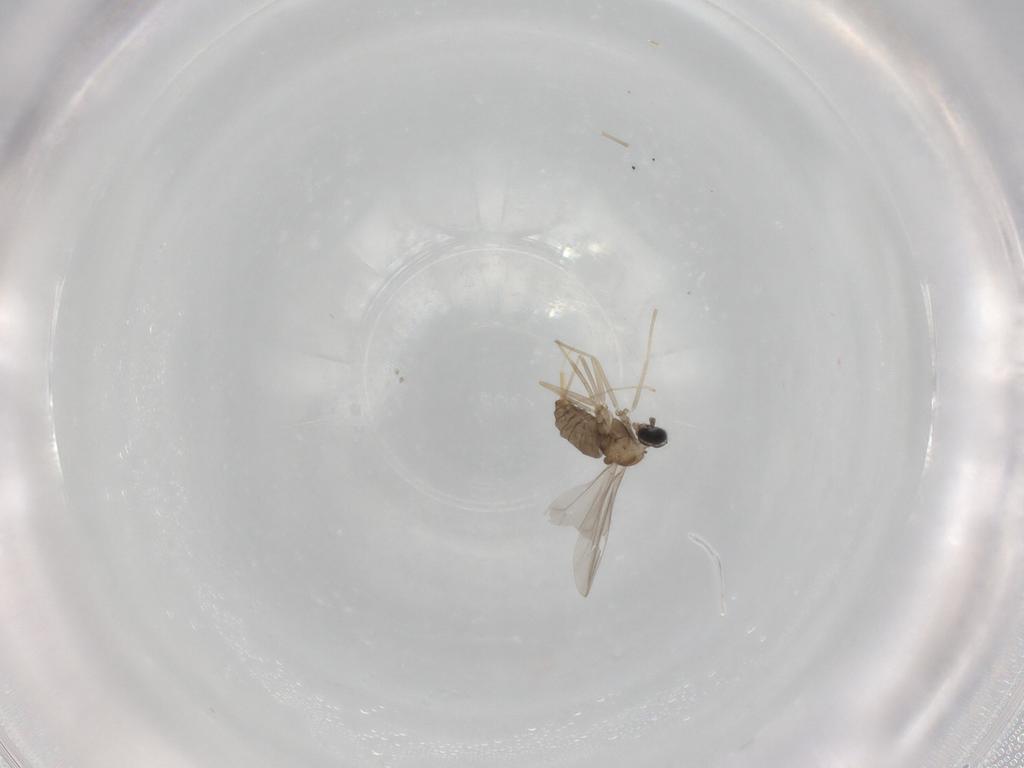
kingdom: Animalia
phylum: Arthropoda
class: Insecta
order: Diptera
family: Cecidomyiidae
